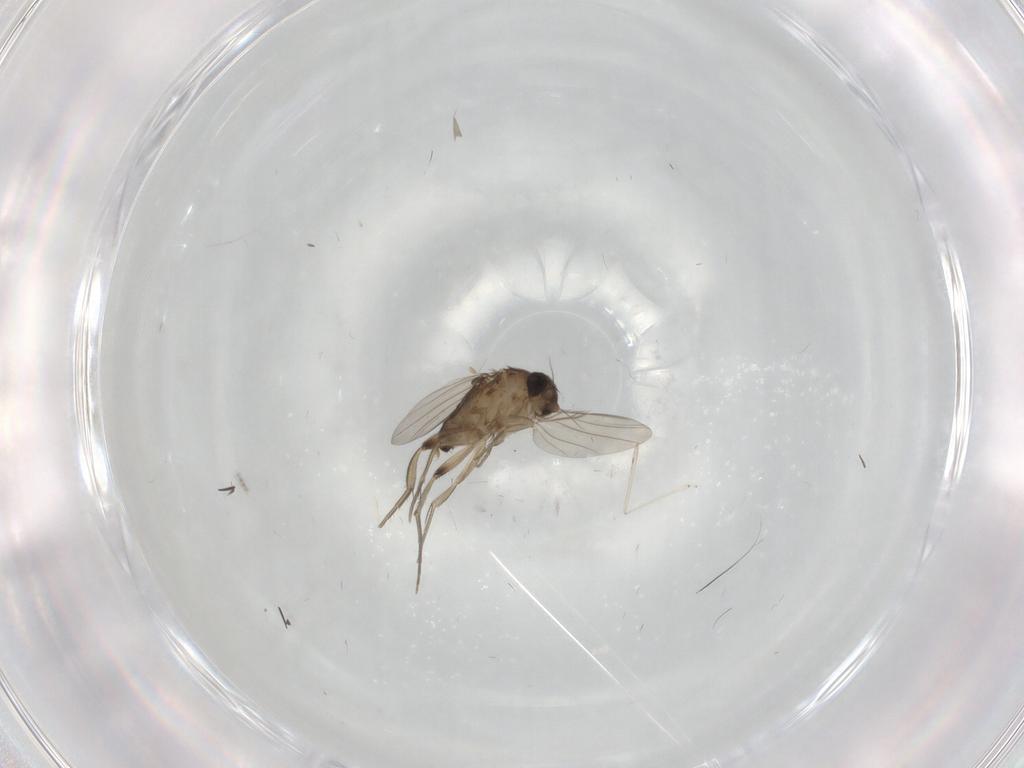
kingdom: Animalia
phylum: Arthropoda
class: Insecta
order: Diptera
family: Phoridae
